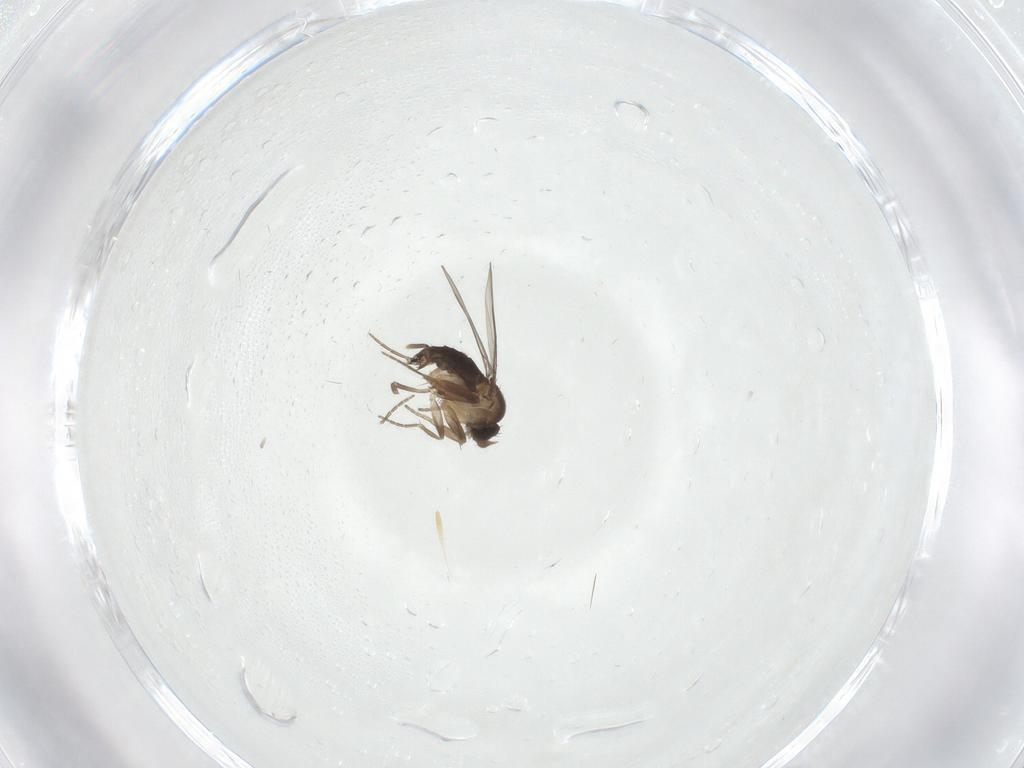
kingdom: Animalia
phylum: Arthropoda
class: Insecta
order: Diptera
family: Phoridae
